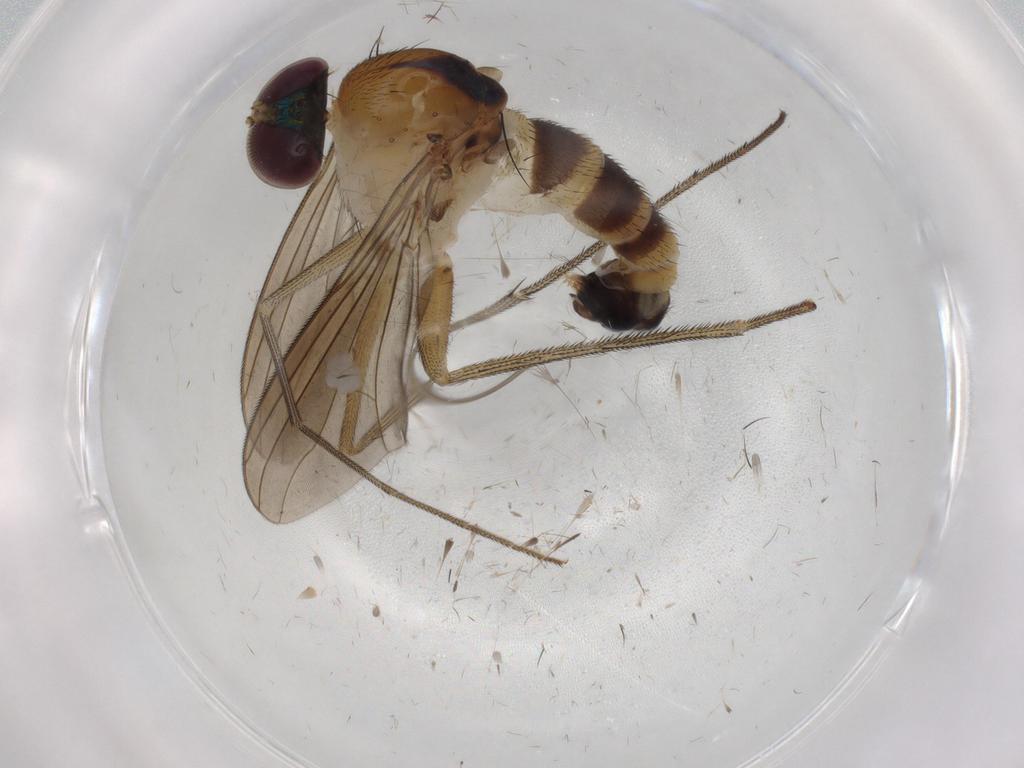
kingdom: Animalia
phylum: Arthropoda
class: Insecta
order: Diptera
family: Dolichopodidae
